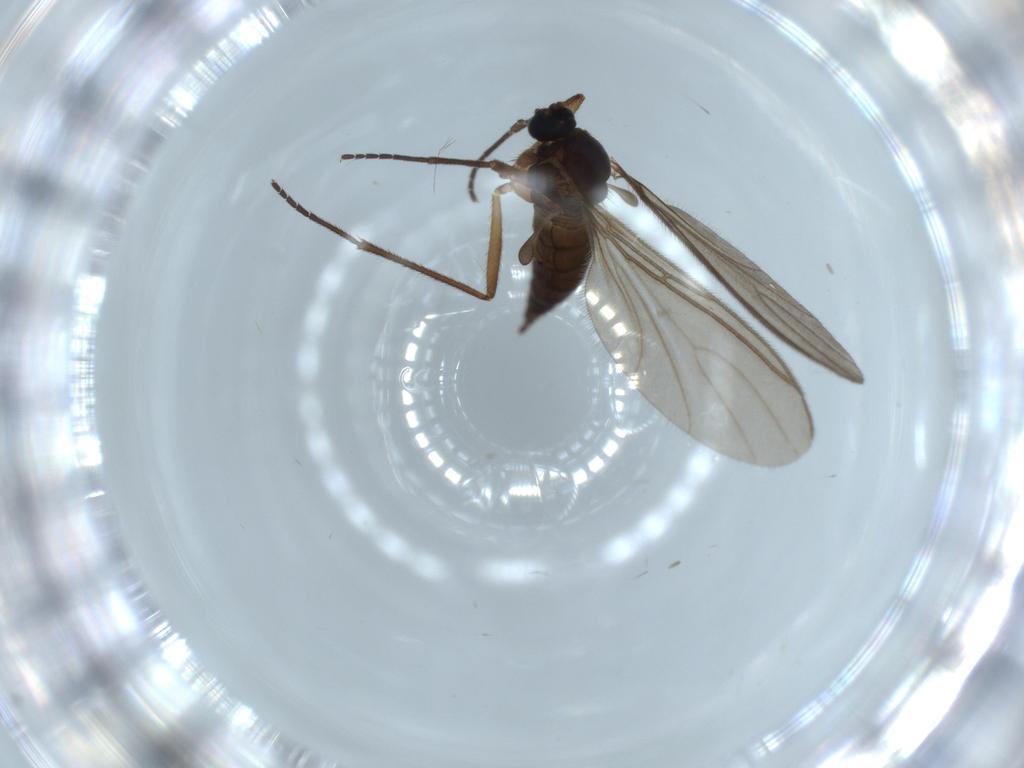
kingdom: Animalia
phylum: Arthropoda
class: Insecta
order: Diptera
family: Sciaridae
